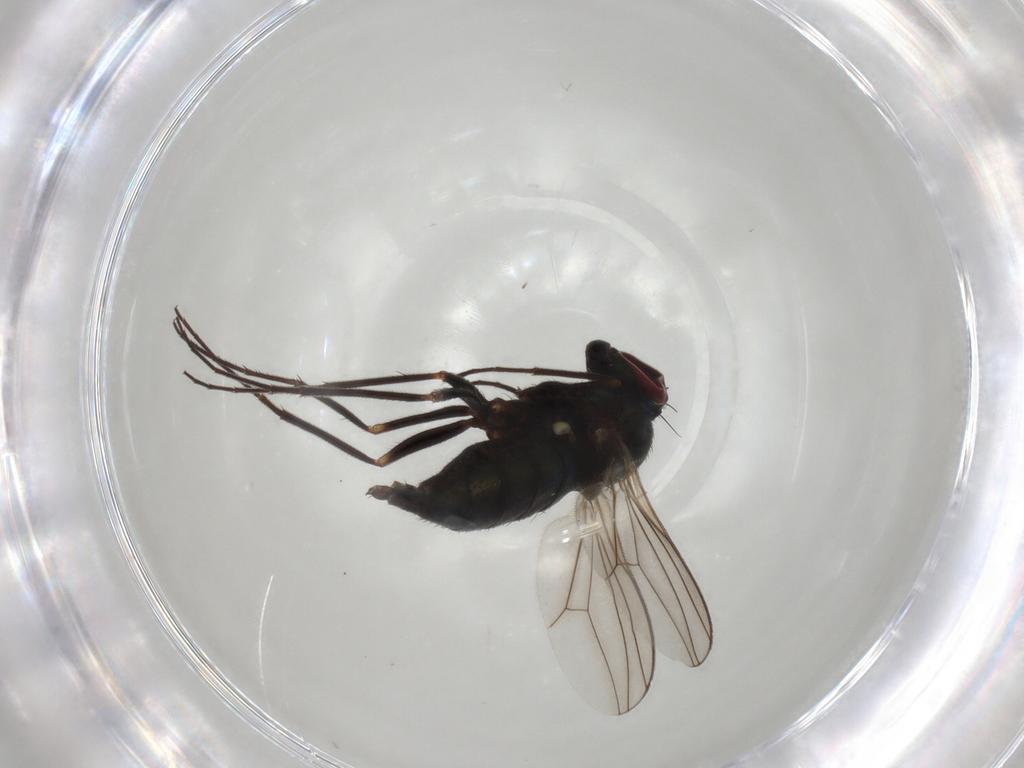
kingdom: Animalia
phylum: Arthropoda
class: Insecta
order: Diptera
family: Dolichopodidae
